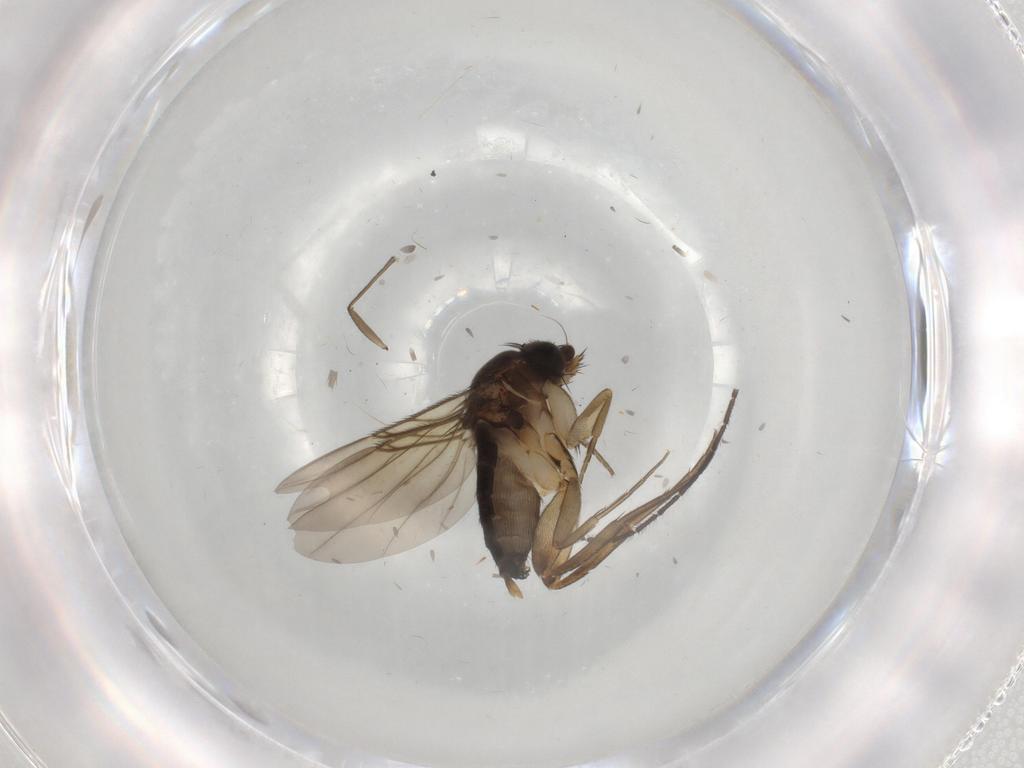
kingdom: Animalia
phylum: Arthropoda
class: Insecta
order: Diptera
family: Phoridae
